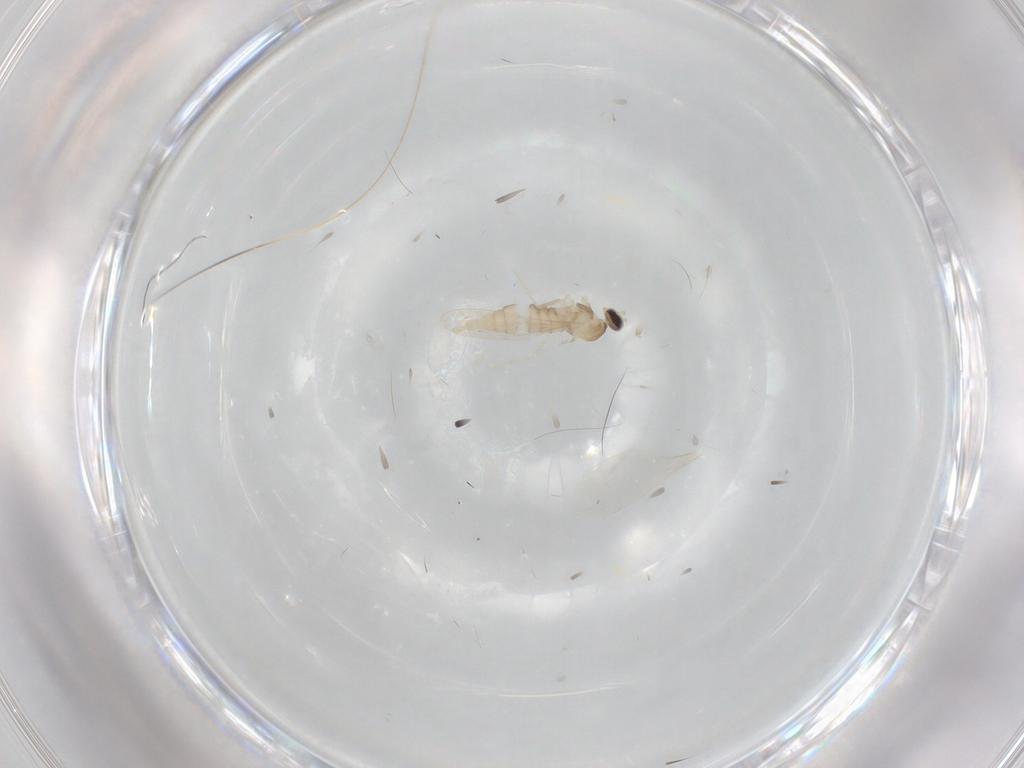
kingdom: Animalia
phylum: Arthropoda
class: Insecta
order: Diptera
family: Cecidomyiidae
